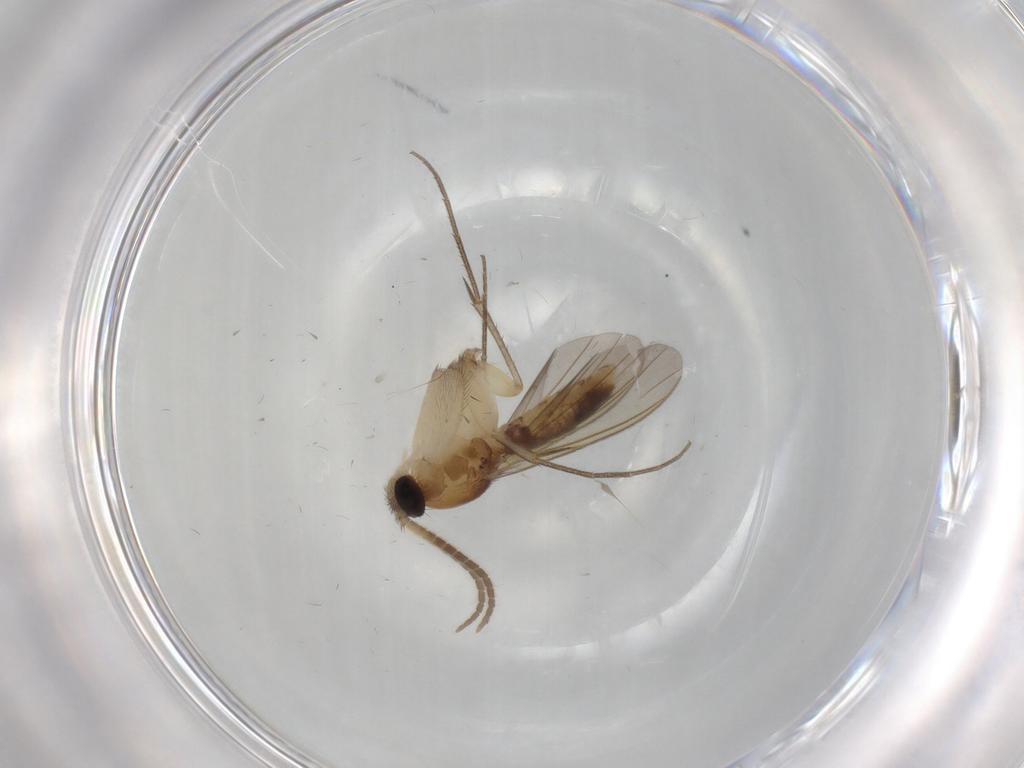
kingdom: Animalia
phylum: Arthropoda
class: Insecta
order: Diptera
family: Mycetophilidae
